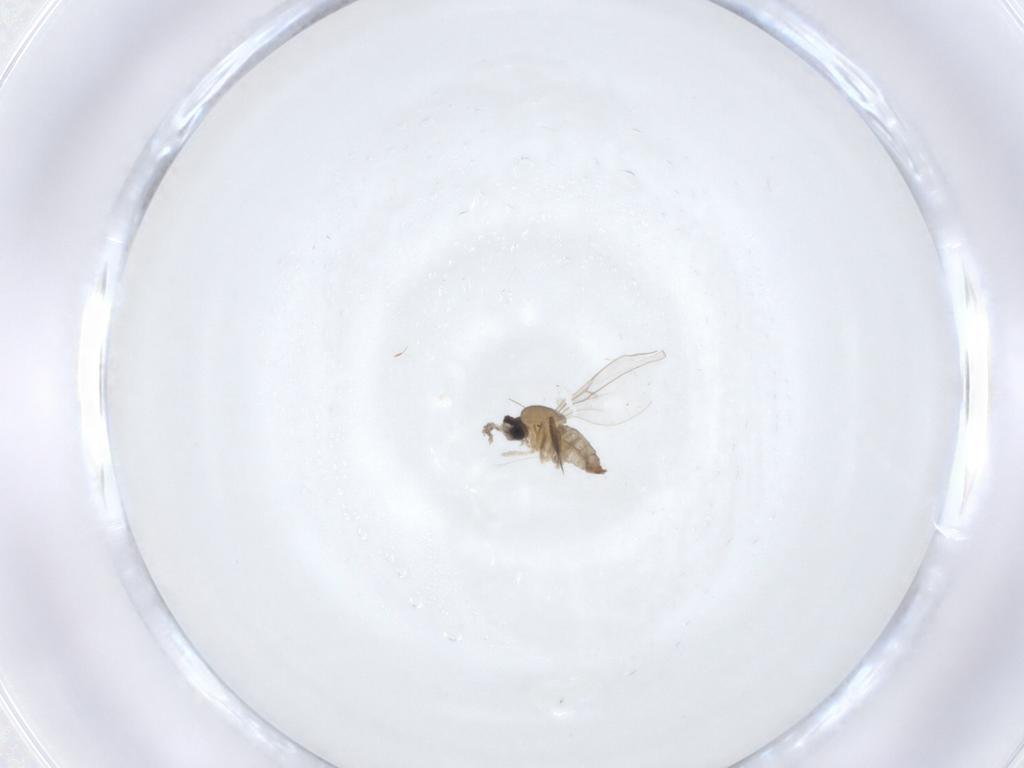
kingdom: Animalia
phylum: Arthropoda
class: Insecta
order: Diptera
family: Cecidomyiidae
